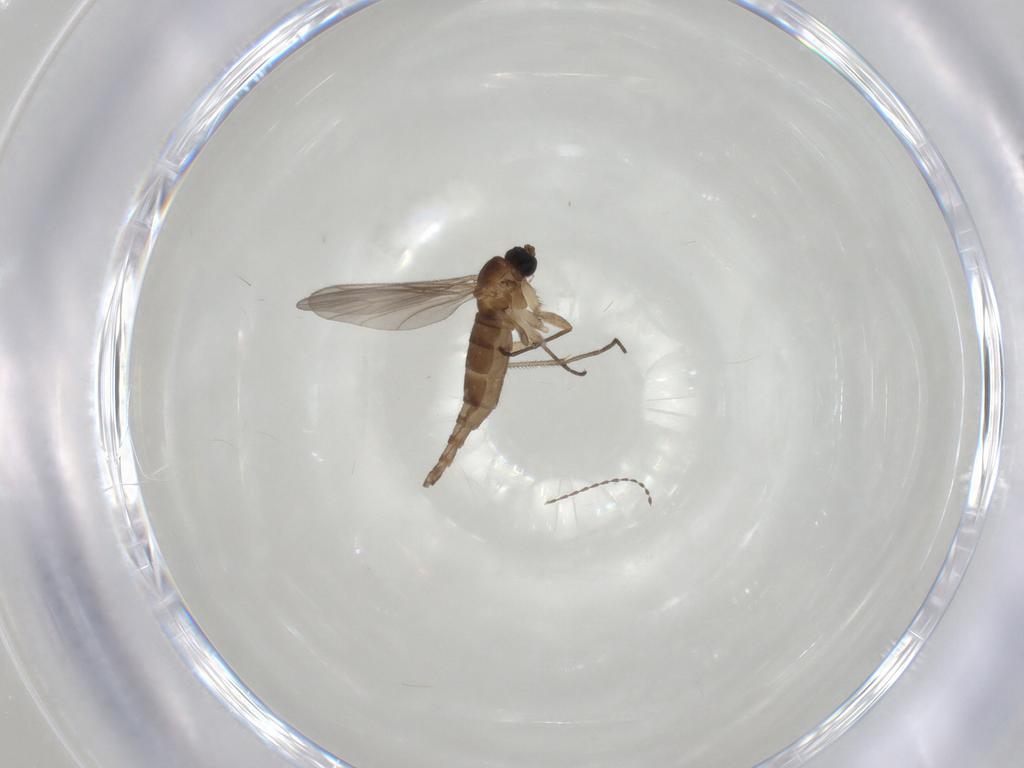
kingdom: Animalia
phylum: Arthropoda
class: Insecta
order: Diptera
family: Sciaridae
